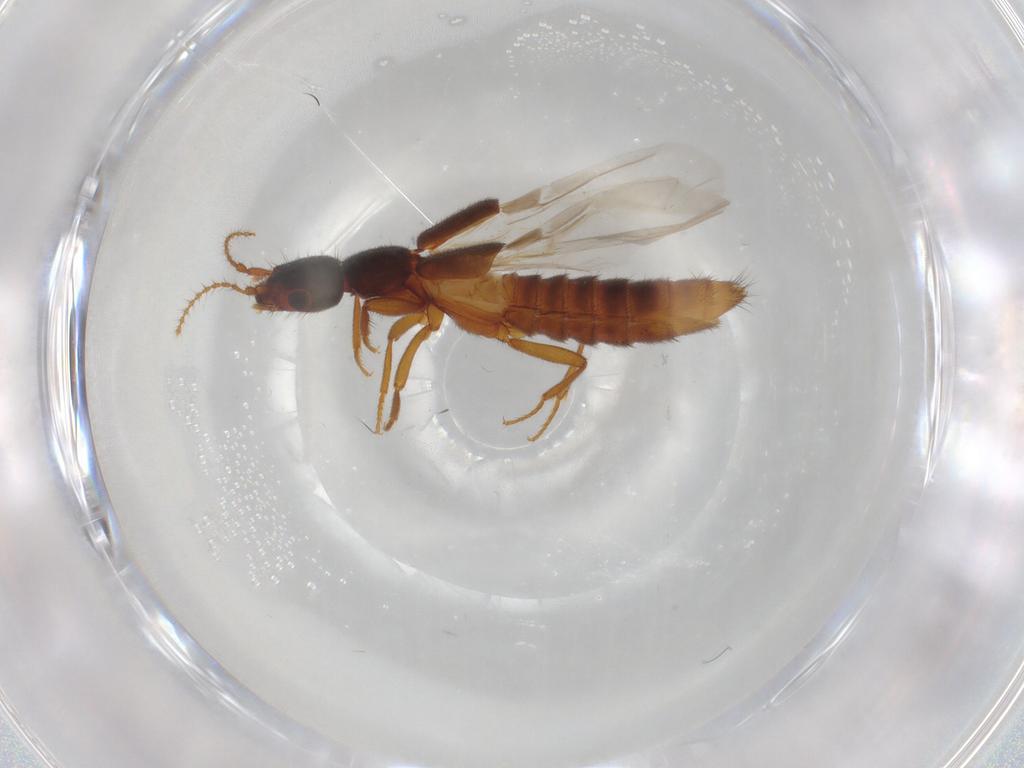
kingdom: Animalia
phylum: Arthropoda
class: Insecta
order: Coleoptera
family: Staphylinidae
